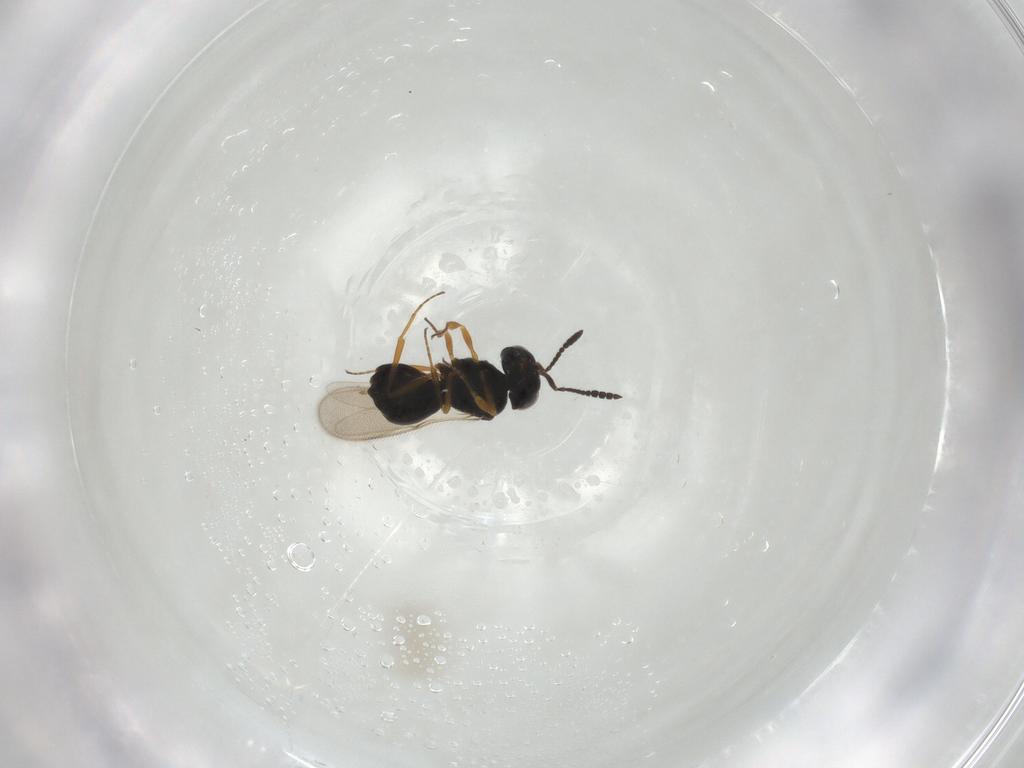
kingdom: Animalia
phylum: Arthropoda
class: Insecta
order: Hymenoptera
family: Scelionidae
